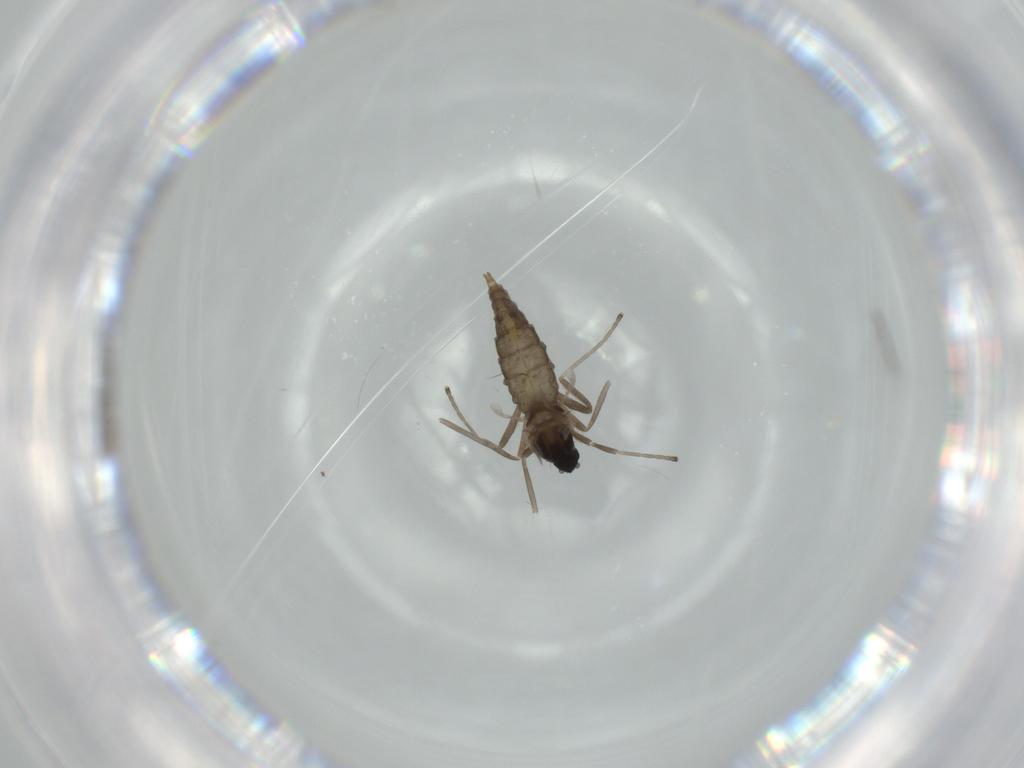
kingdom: Animalia
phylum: Arthropoda
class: Insecta
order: Diptera
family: Cecidomyiidae
